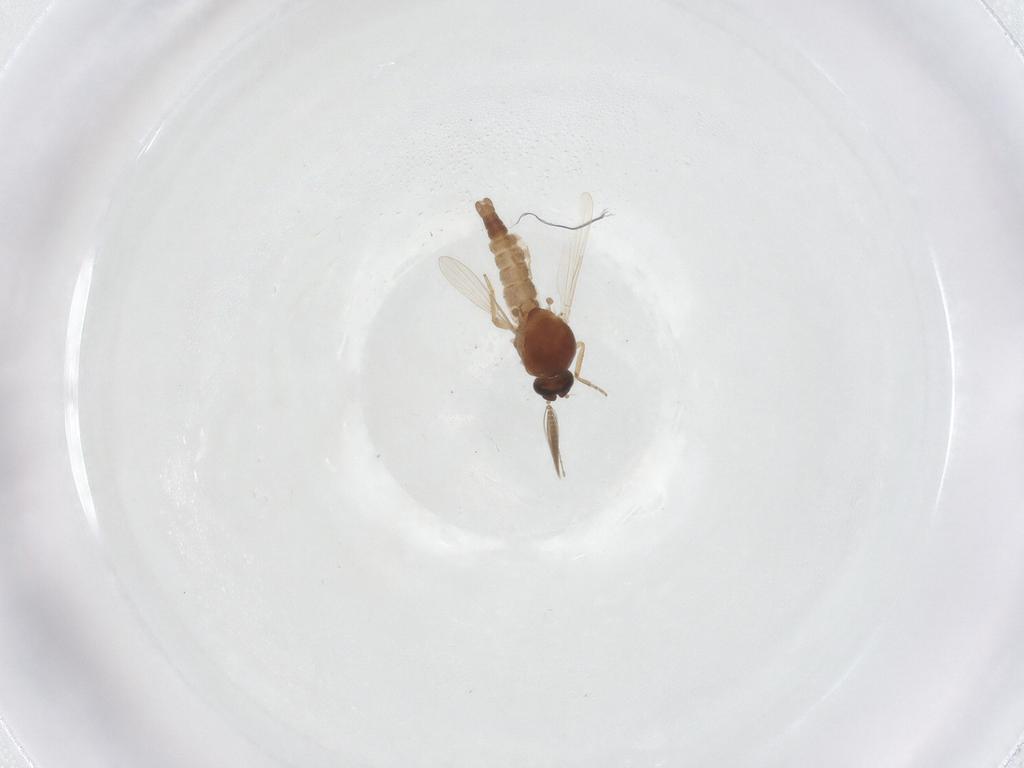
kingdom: Animalia
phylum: Arthropoda
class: Insecta
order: Diptera
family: Ceratopogonidae
